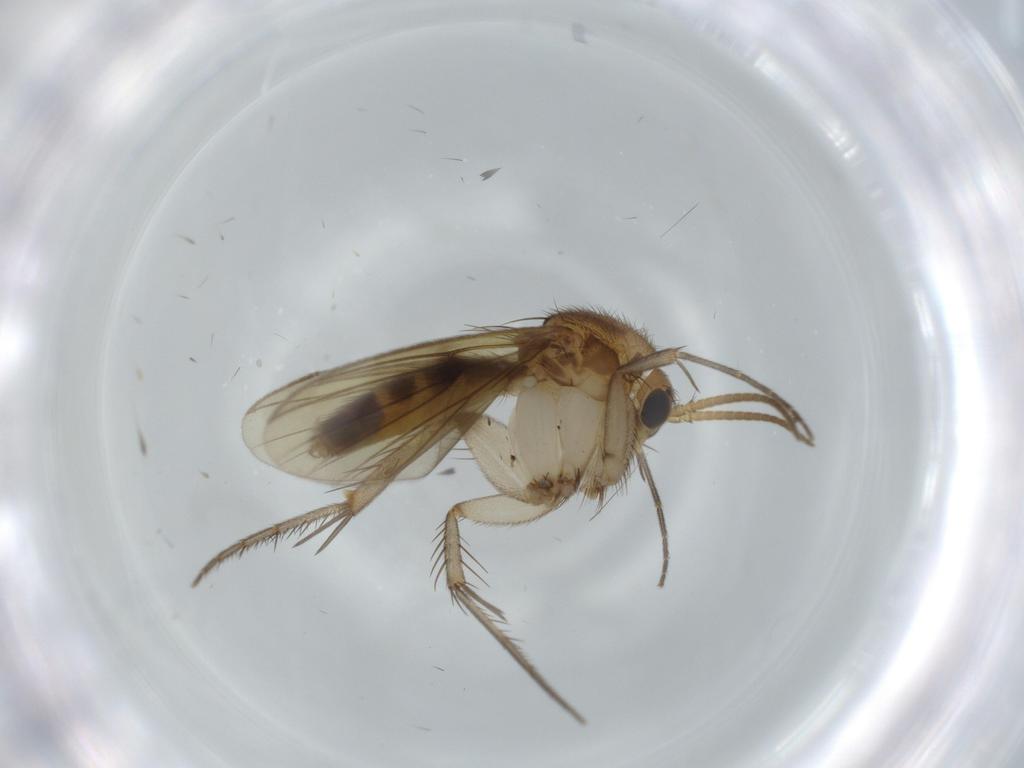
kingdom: Animalia
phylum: Arthropoda
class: Insecta
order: Diptera
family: Mycetophilidae
